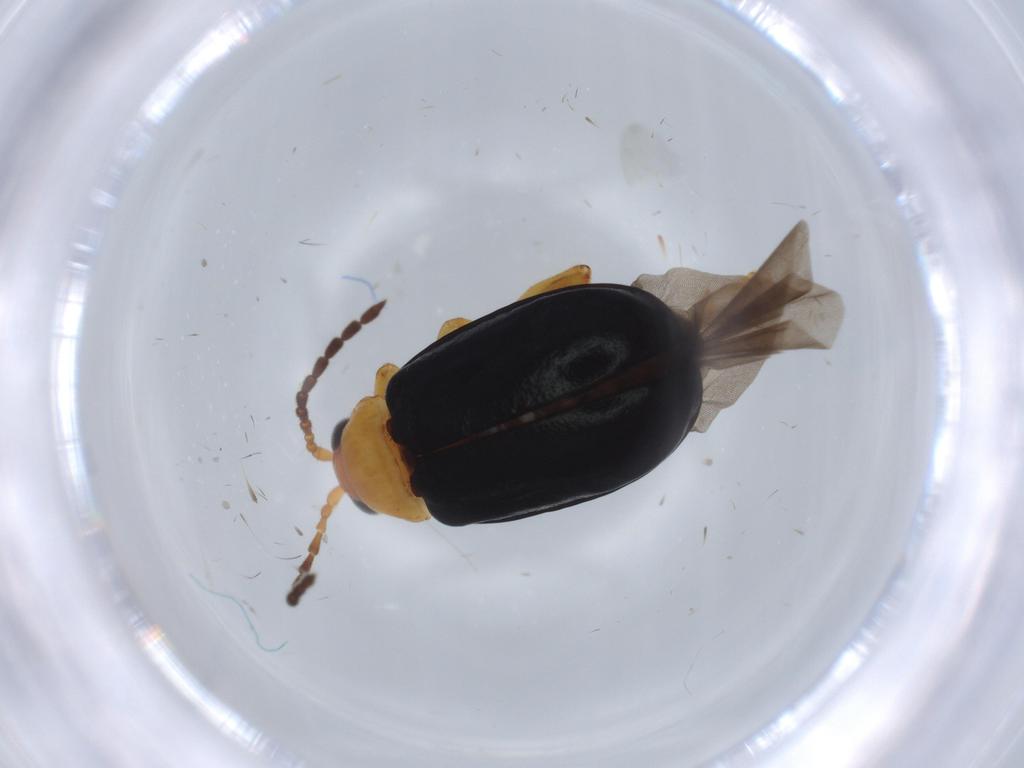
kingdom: Animalia
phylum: Arthropoda
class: Insecta
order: Coleoptera
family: Chrysomelidae
